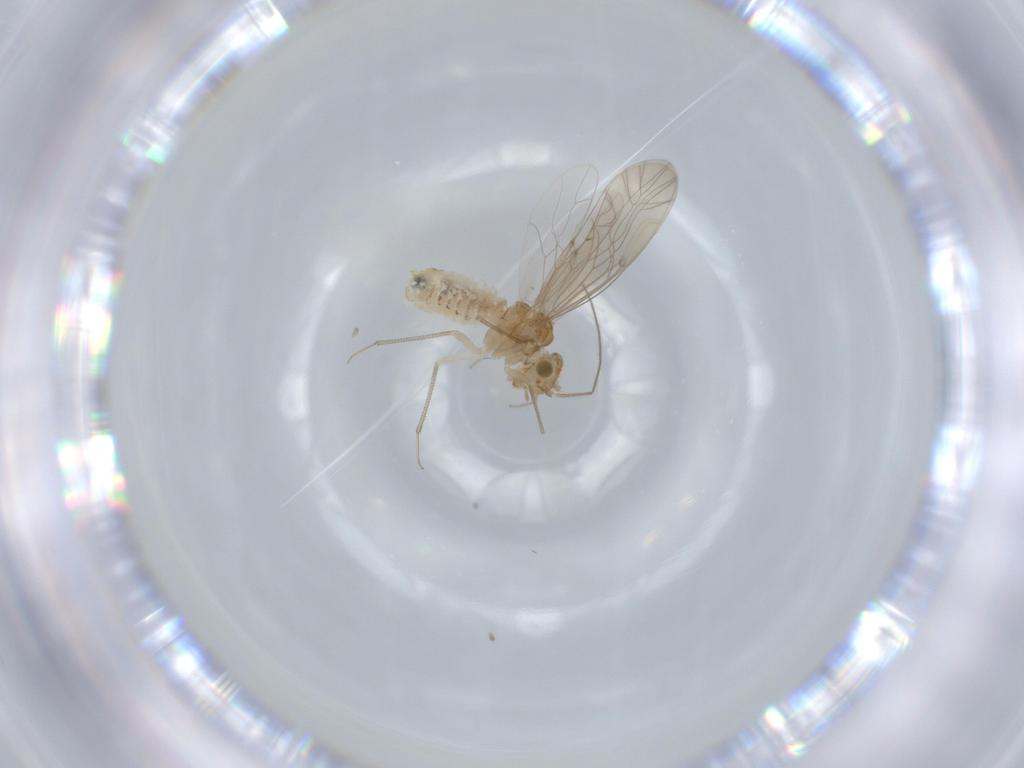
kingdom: Animalia
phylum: Arthropoda
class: Insecta
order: Psocodea
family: Lachesillidae
